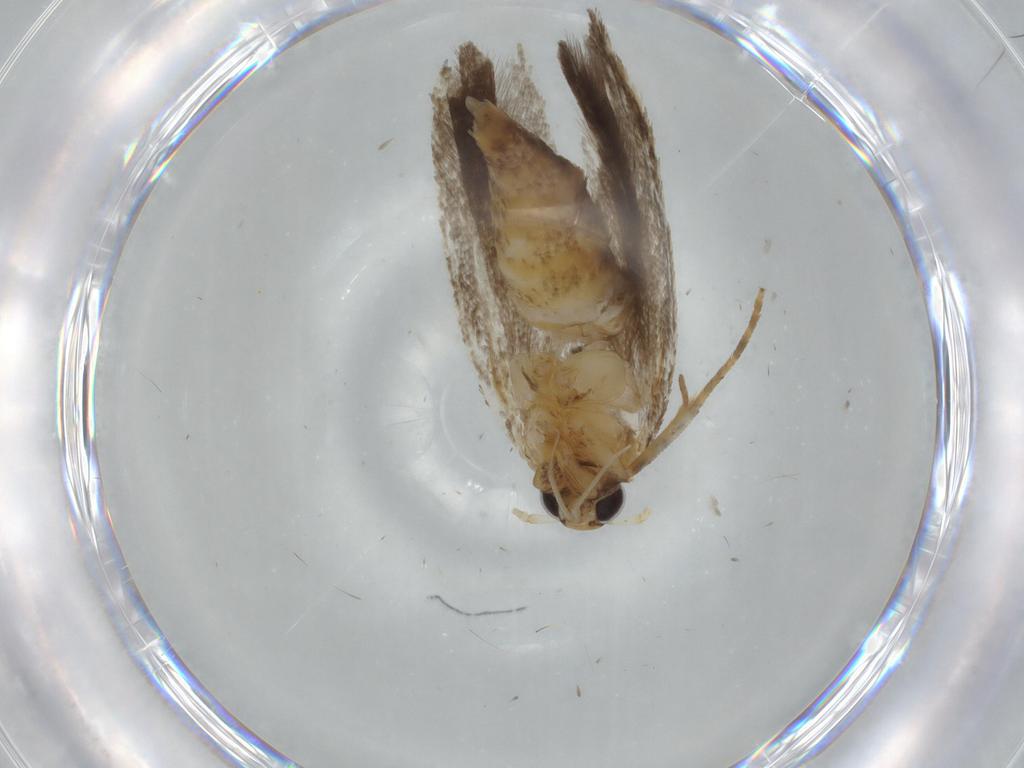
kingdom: Animalia
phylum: Arthropoda
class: Insecta
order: Lepidoptera
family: Gelechiidae
